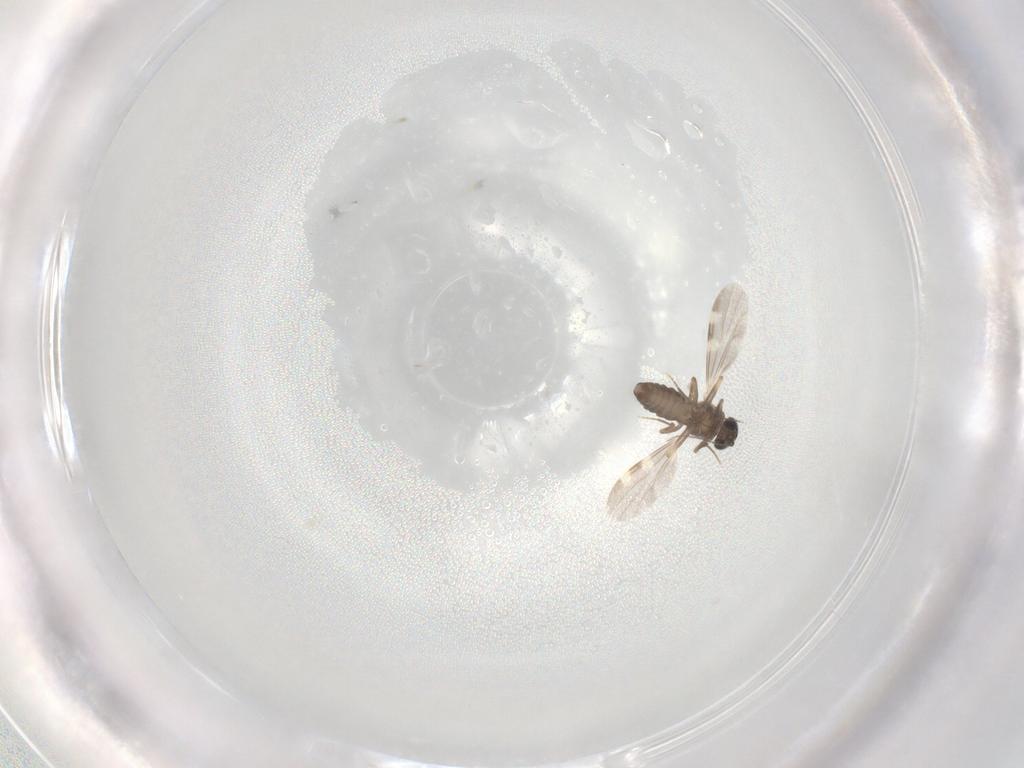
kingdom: Animalia
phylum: Arthropoda
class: Insecta
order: Diptera
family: Ceratopogonidae
